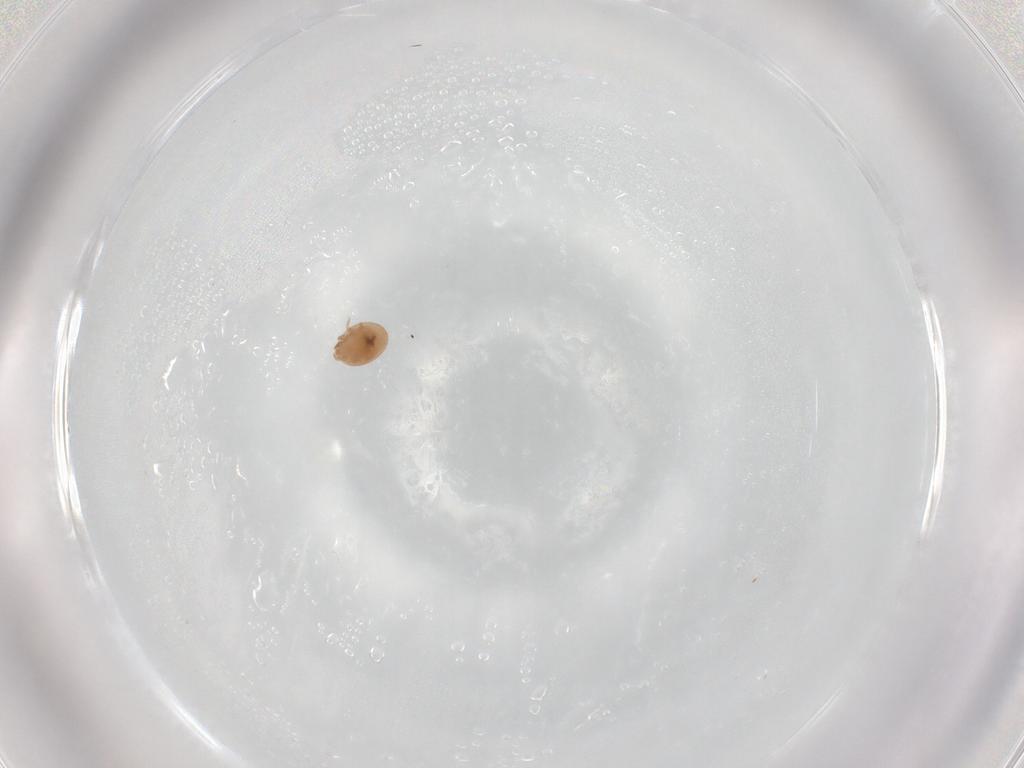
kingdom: Animalia
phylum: Arthropoda
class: Arachnida
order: Mesostigmata
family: Trematuridae
